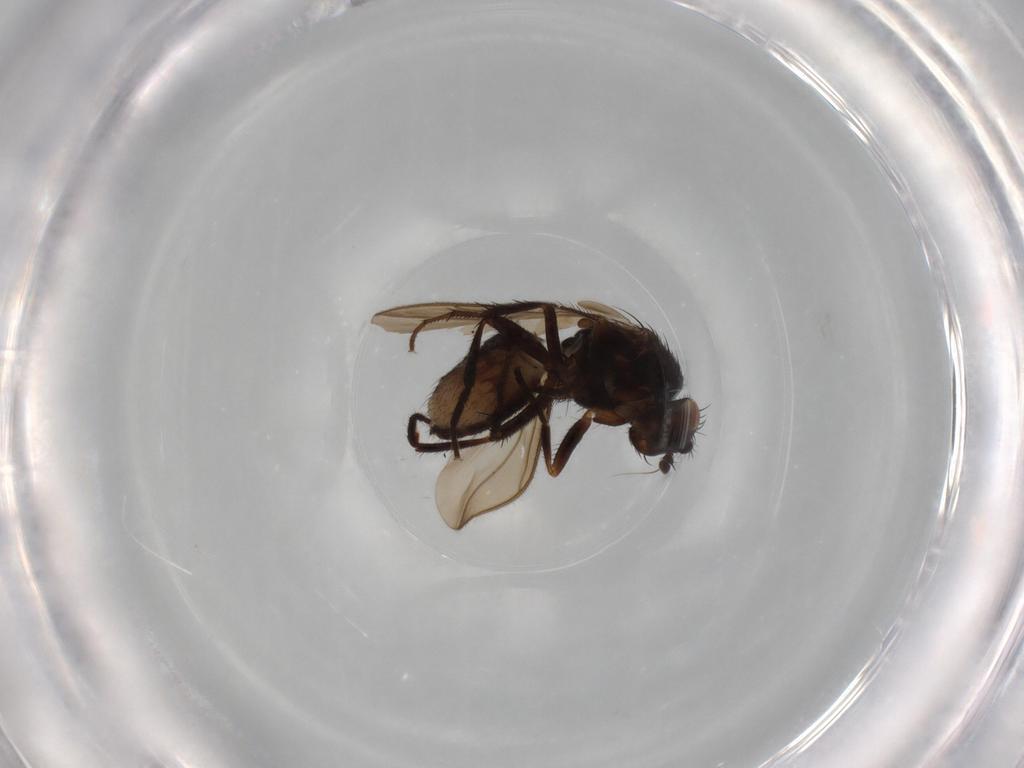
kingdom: Animalia
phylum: Arthropoda
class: Insecta
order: Diptera
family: Sphaeroceridae
